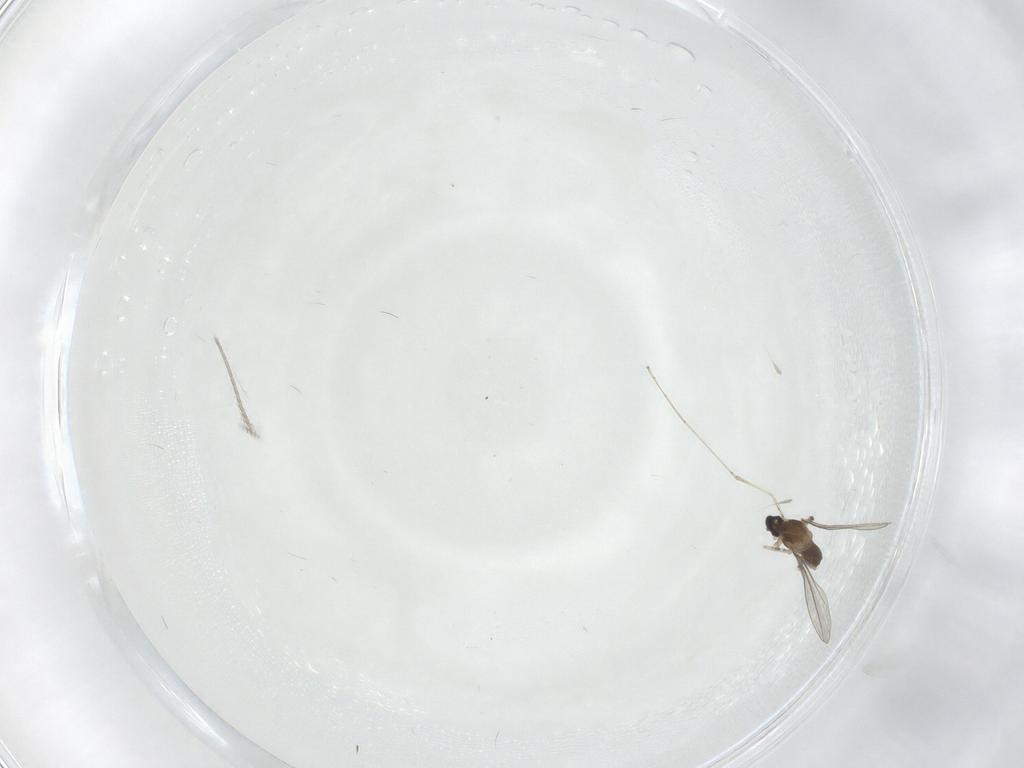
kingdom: Animalia
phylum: Arthropoda
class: Insecta
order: Diptera
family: Cecidomyiidae
